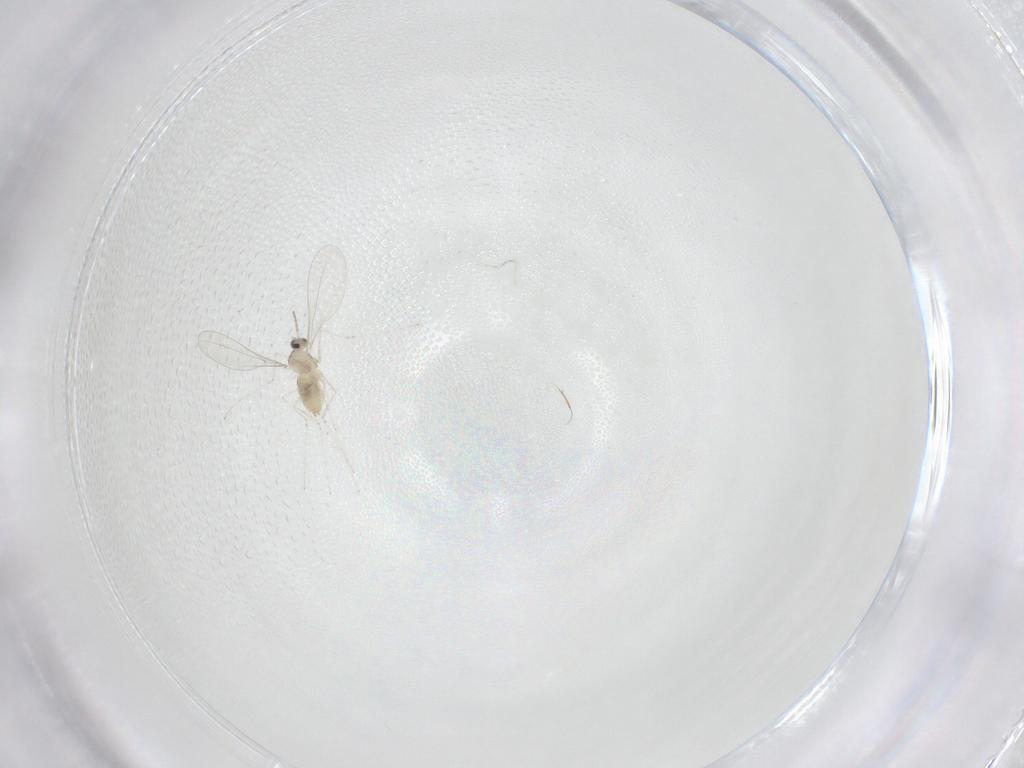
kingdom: Animalia
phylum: Arthropoda
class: Insecta
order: Diptera
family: Cecidomyiidae
